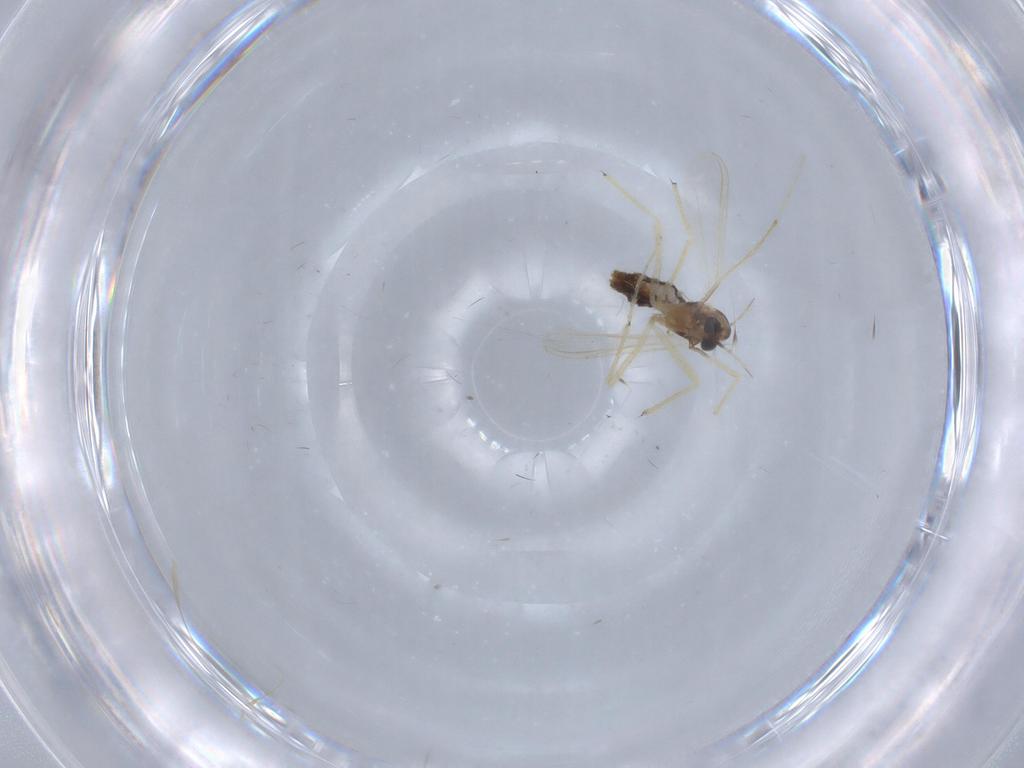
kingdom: Animalia
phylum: Arthropoda
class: Insecta
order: Diptera
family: Chironomidae
